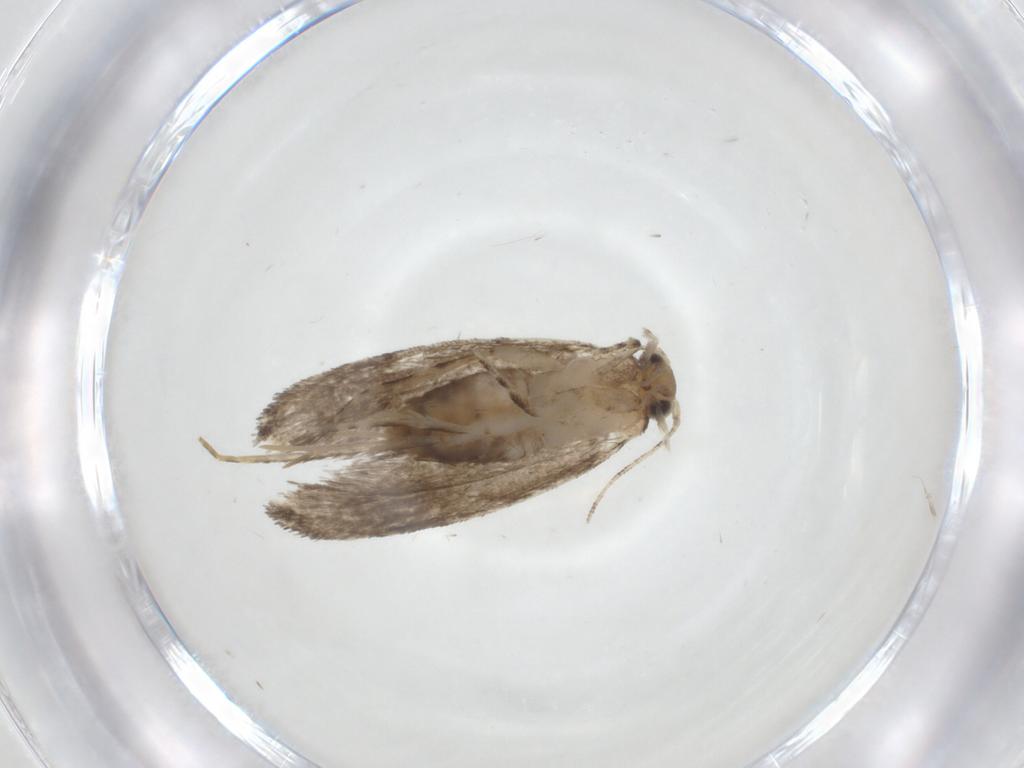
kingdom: Animalia
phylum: Arthropoda
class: Insecta
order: Lepidoptera
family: Tineidae
